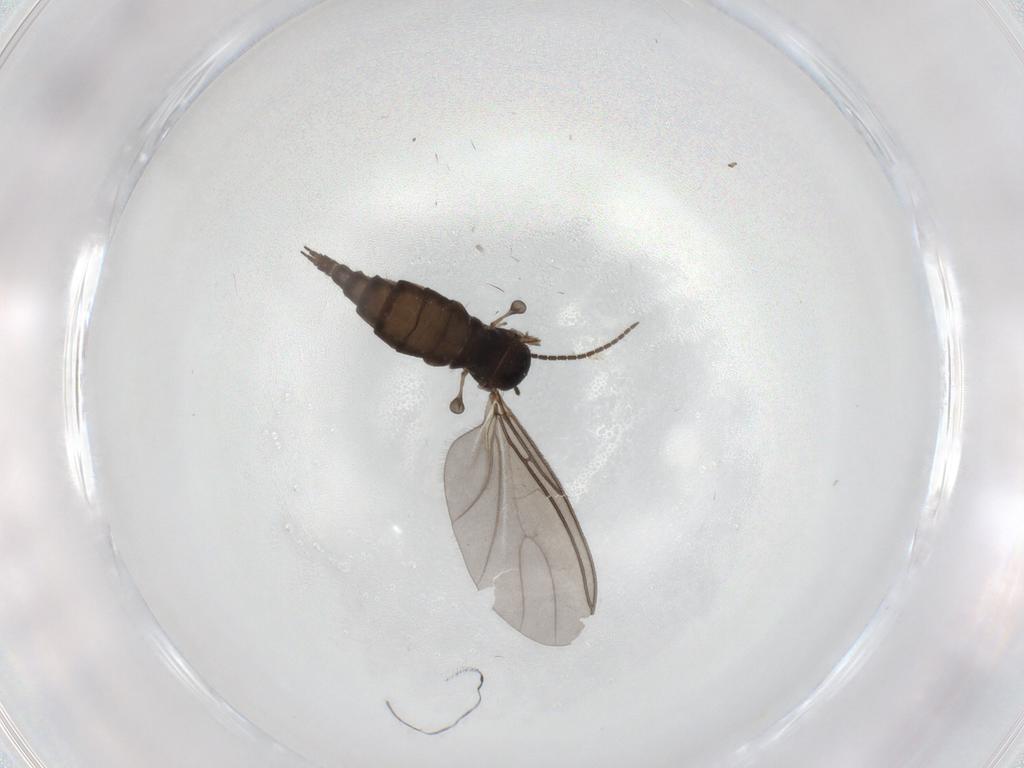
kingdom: Animalia
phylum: Arthropoda
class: Insecta
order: Diptera
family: Sciaridae
